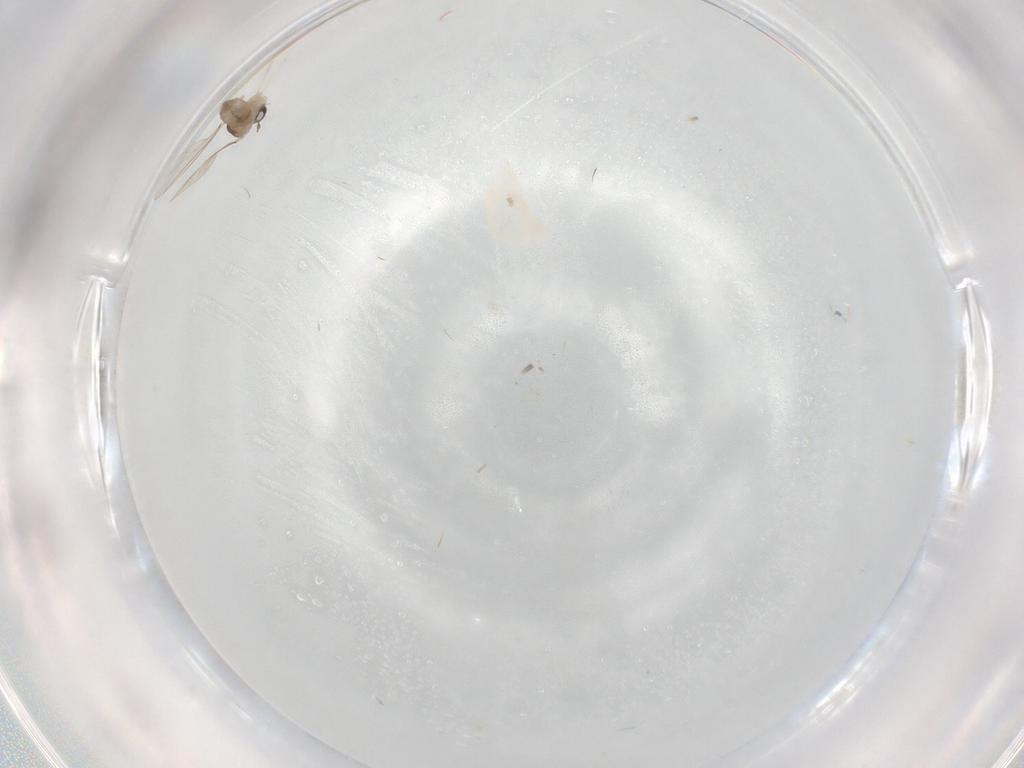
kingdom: Animalia
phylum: Arthropoda
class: Insecta
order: Diptera
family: Cecidomyiidae
